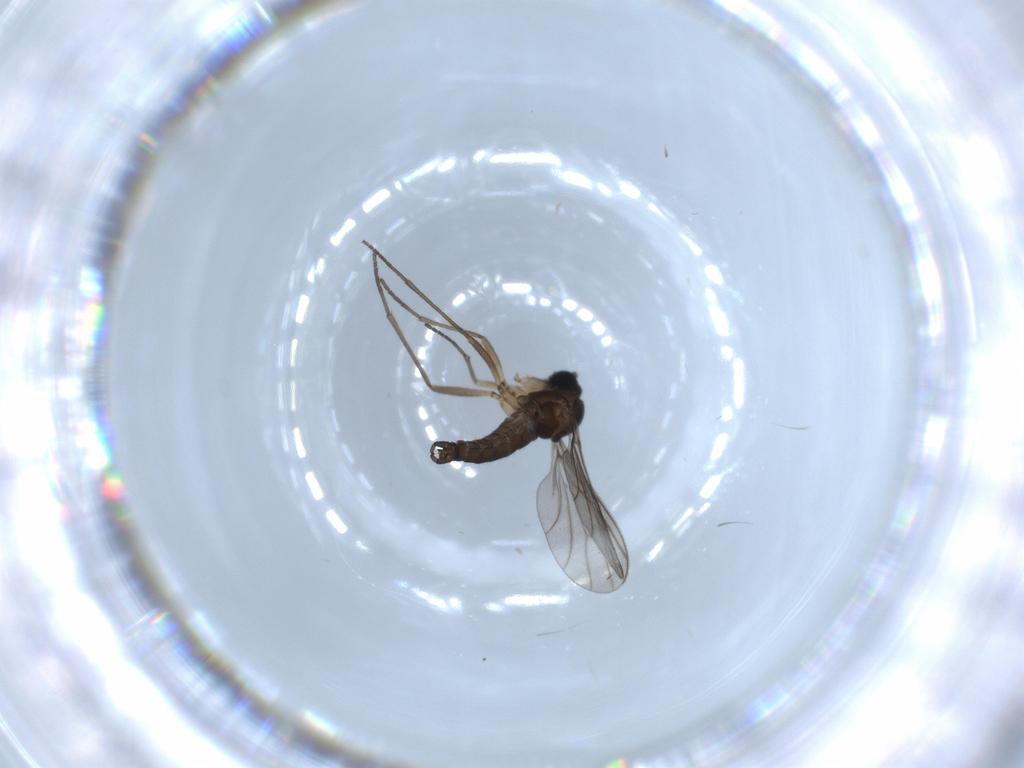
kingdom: Animalia
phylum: Arthropoda
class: Insecta
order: Diptera
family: Sciaridae
